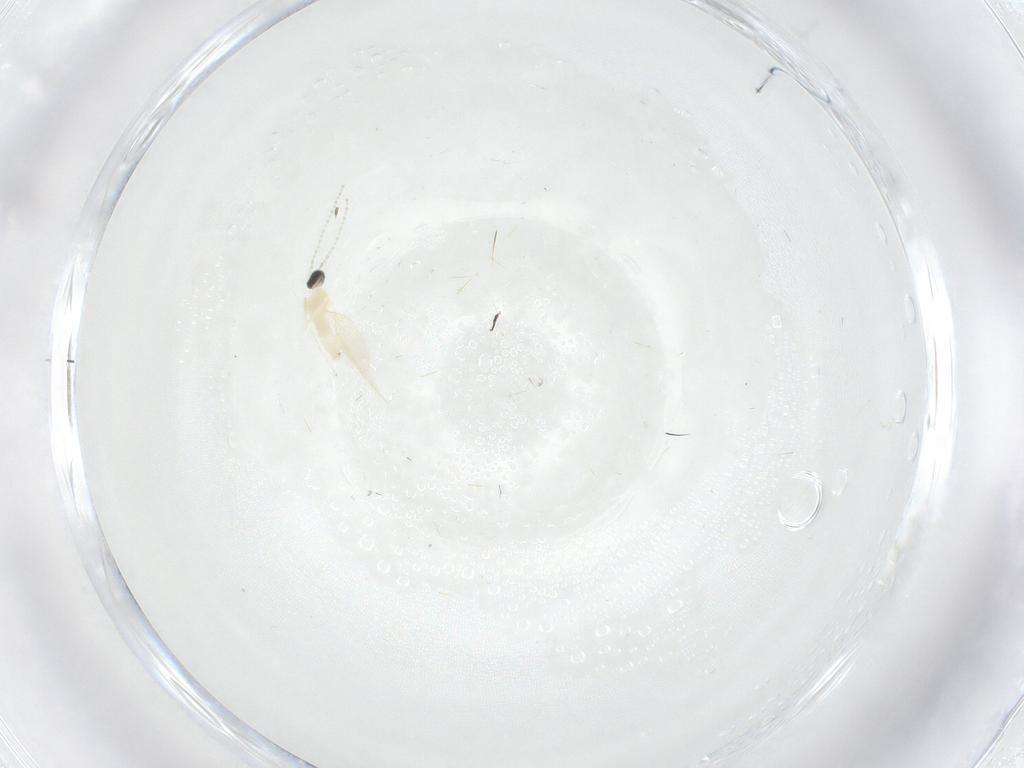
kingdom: Animalia
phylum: Arthropoda
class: Insecta
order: Diptera
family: Cecidomyiidae
